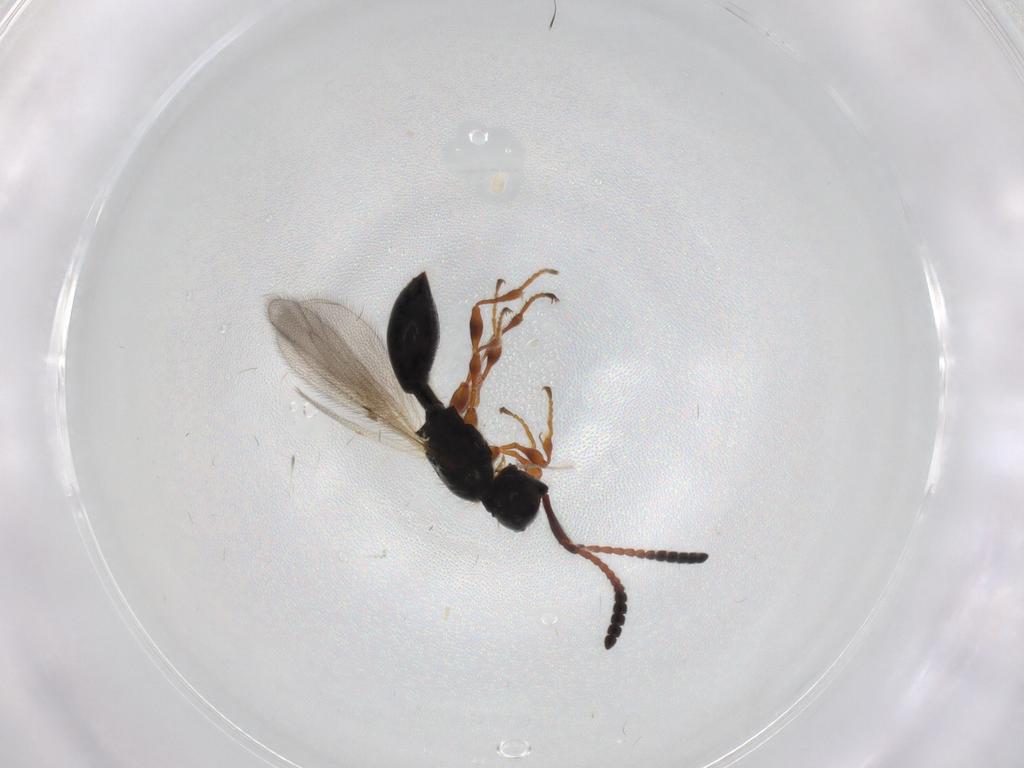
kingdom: Animalia
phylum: Arthropoda
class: Insecta
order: Hymenoptera
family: Diapriidae
